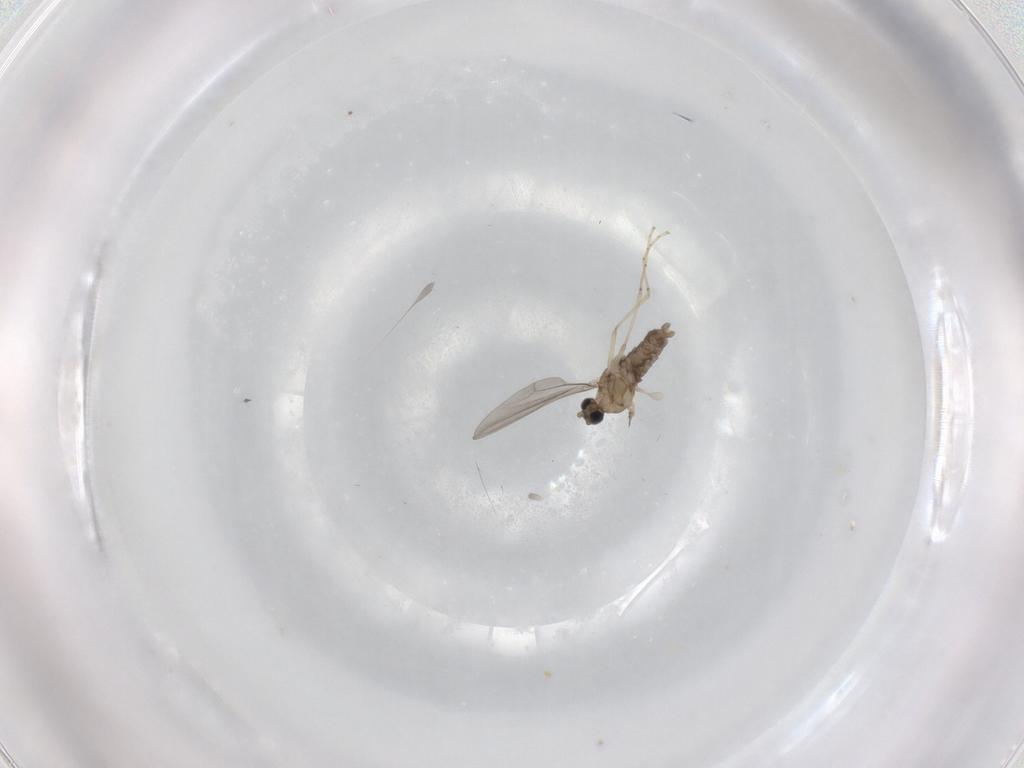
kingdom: Animalia
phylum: Arthropoda
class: Insecta
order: Diptera
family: Cecidomyiidae
